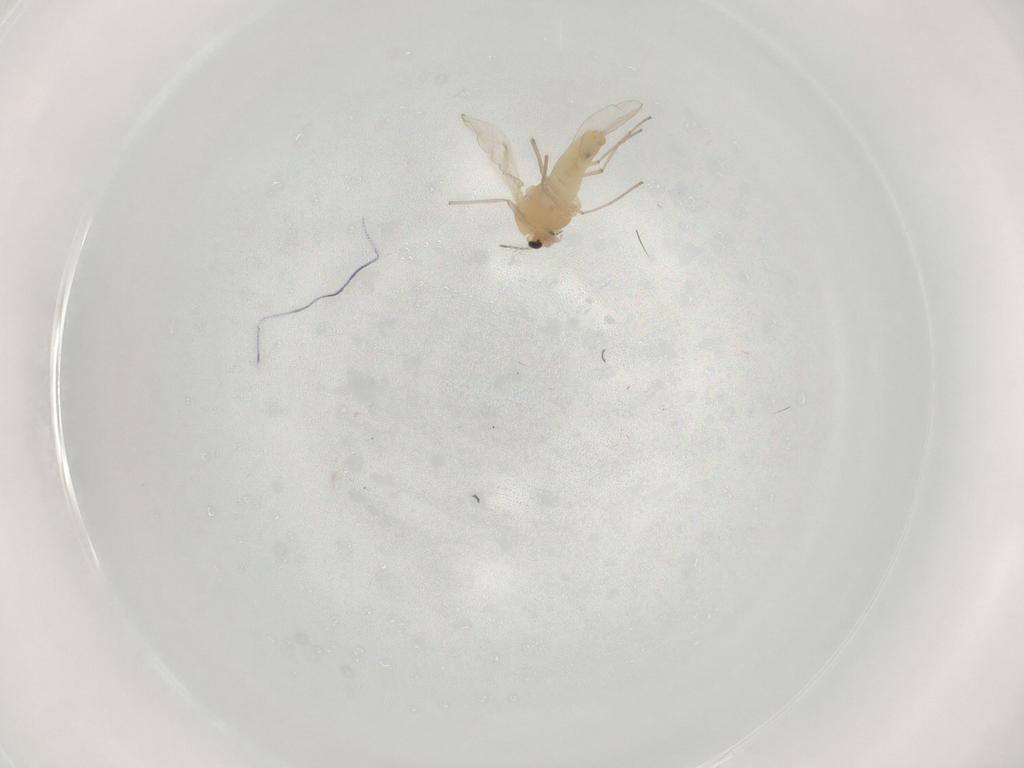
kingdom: Animalia
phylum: Arthropoda
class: Insecta
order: Diptera
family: Chironomidae
